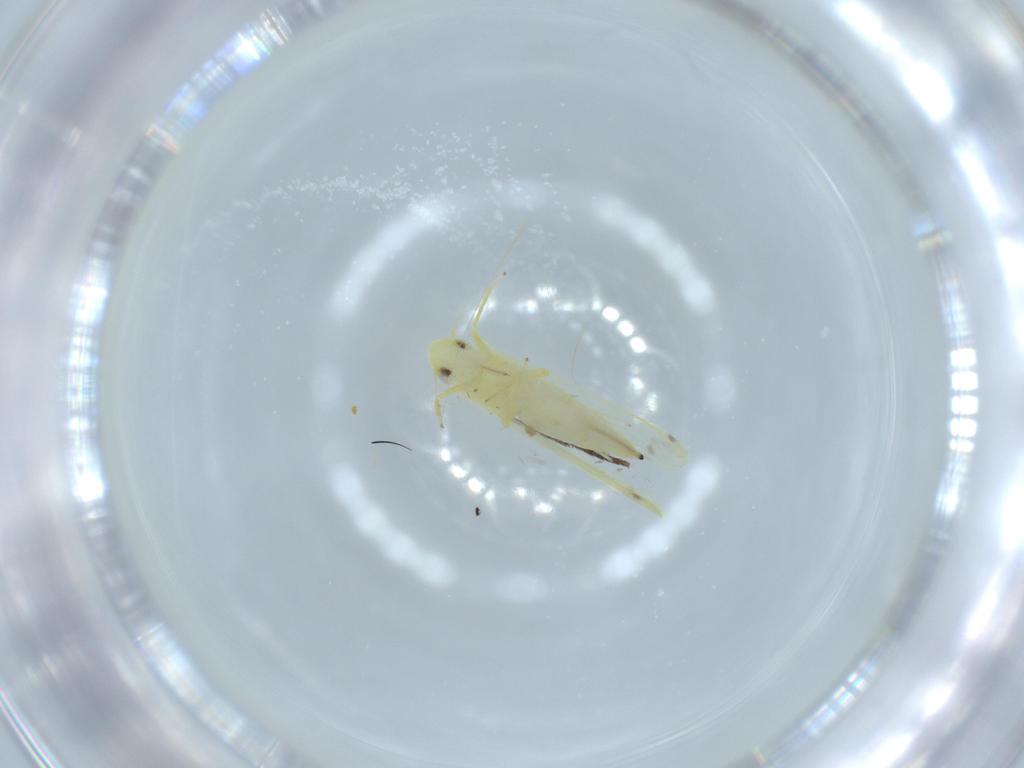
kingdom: Animalia
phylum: Arthropoda
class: Insecta
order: Hemiptera
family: Cicadellidae
